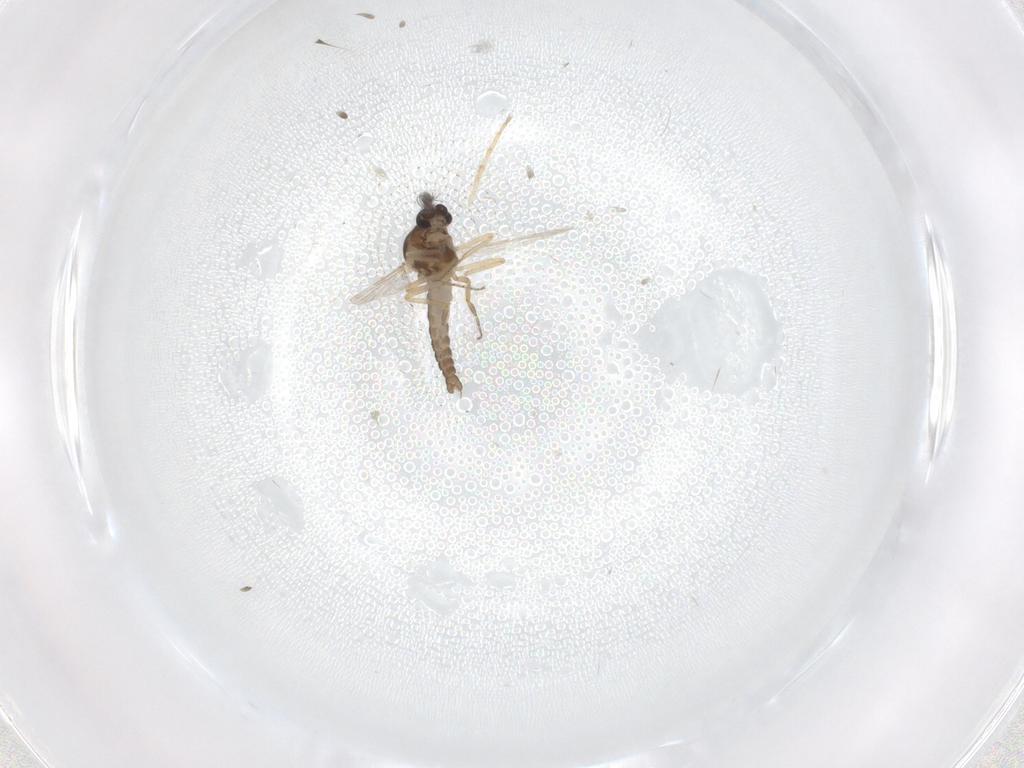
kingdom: Animalia
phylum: Arthropoda
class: Insecta
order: Diptera
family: Ceratopogonidae
